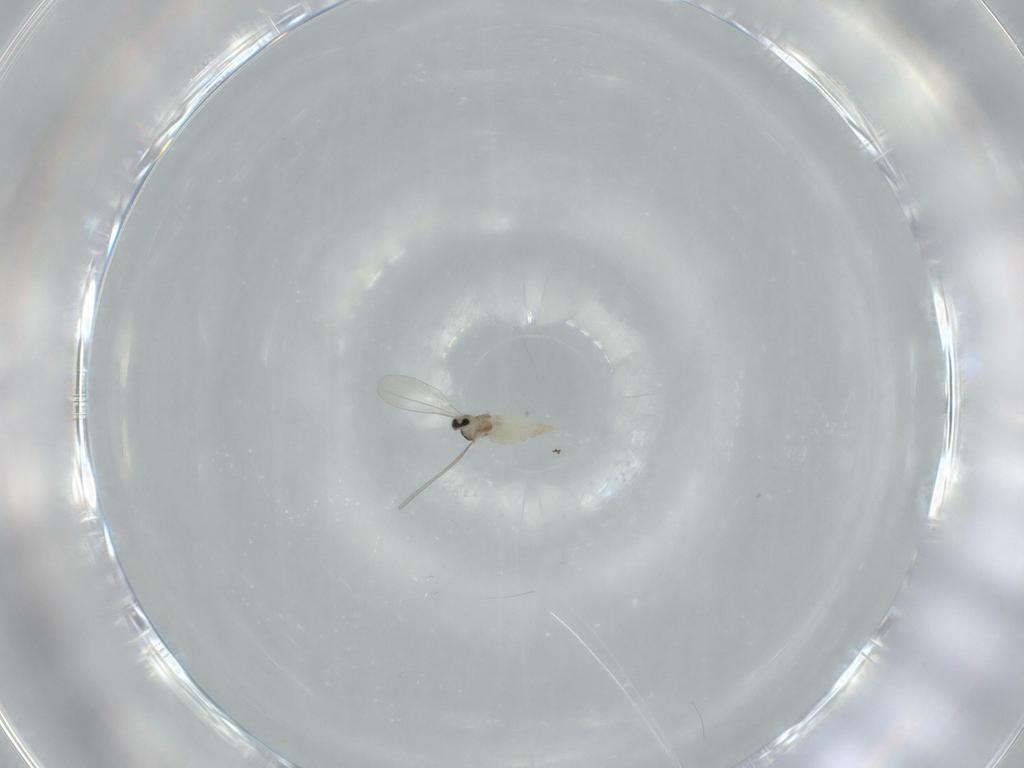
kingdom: Animalia
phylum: Arthropoda
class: Insecta
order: Diptera
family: Cecidomyiidae
